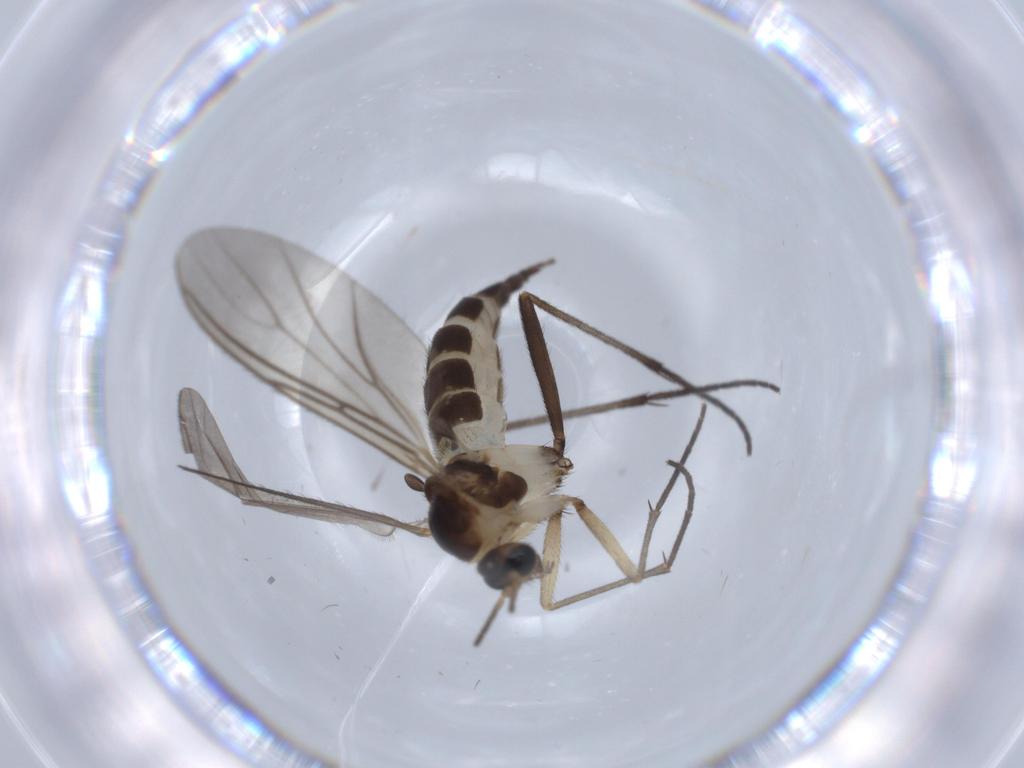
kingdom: Animalia
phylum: Arthropoda
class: Insecta
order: Diptera
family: Sciaridae
